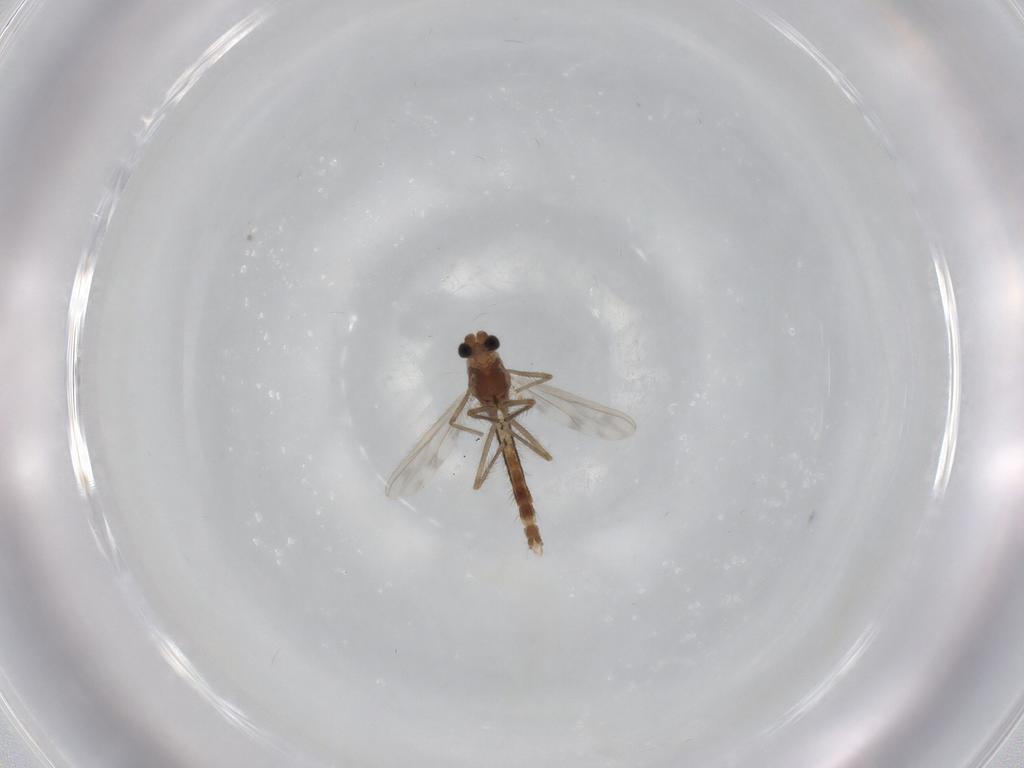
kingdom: Animalia
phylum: Arthropoda
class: Insecta
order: Diptera
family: Chironomidae
